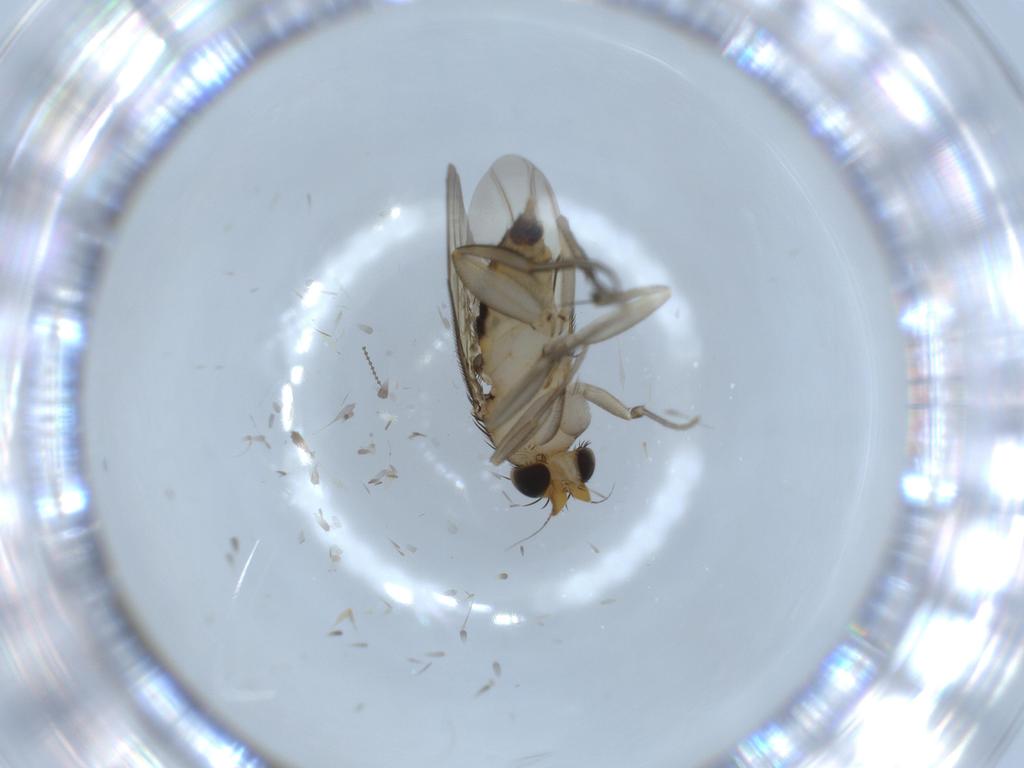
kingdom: Animalia
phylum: Arthropoda
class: Insecta
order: Diptera
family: Phoridae
